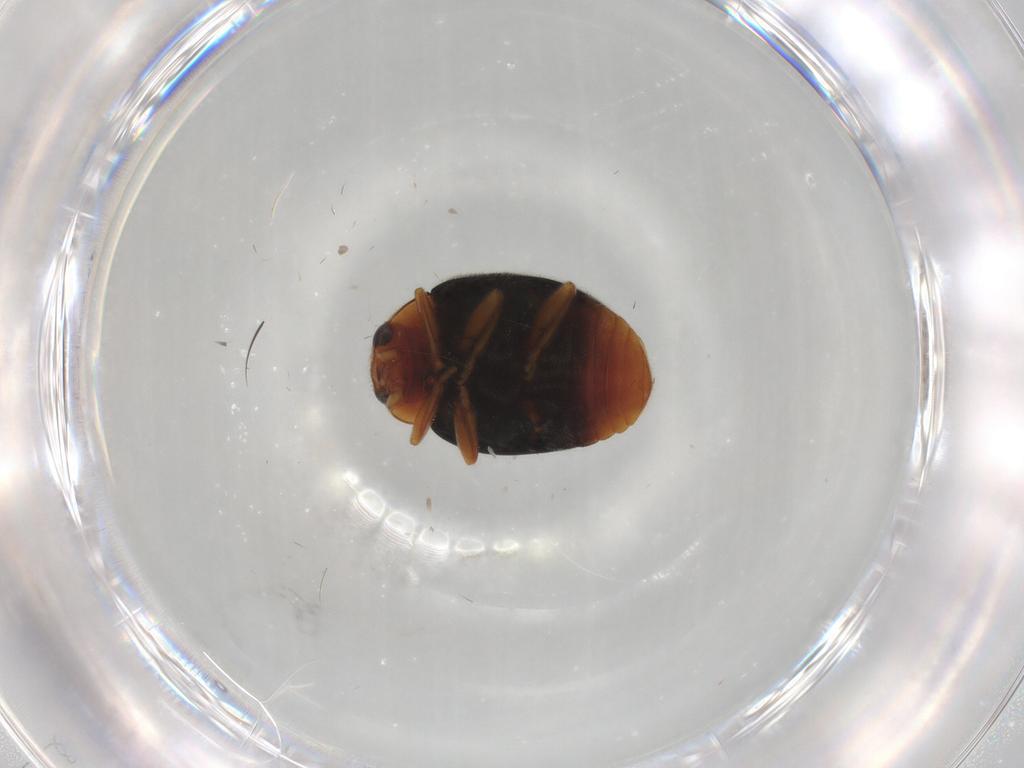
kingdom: Animalia
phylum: Arthropoda
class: Insecta
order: Coleoptera
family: Coccinellidae
